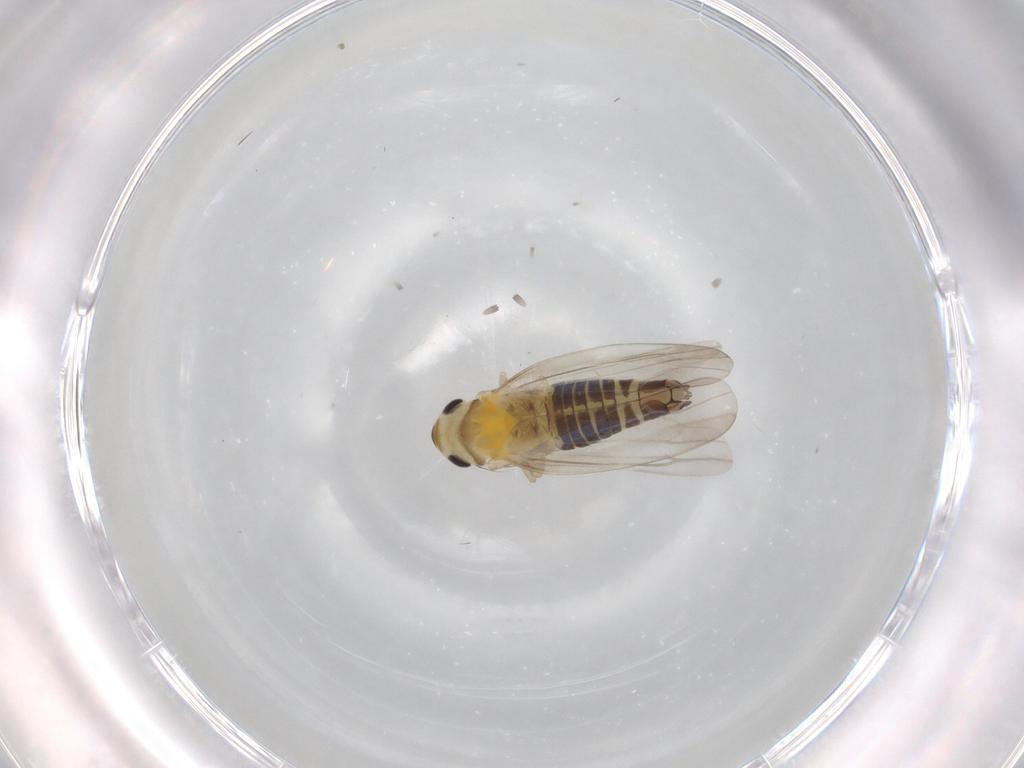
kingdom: Animalia
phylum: Arthropoda
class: Insecta
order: Hemiptera
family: Cicadellidae
